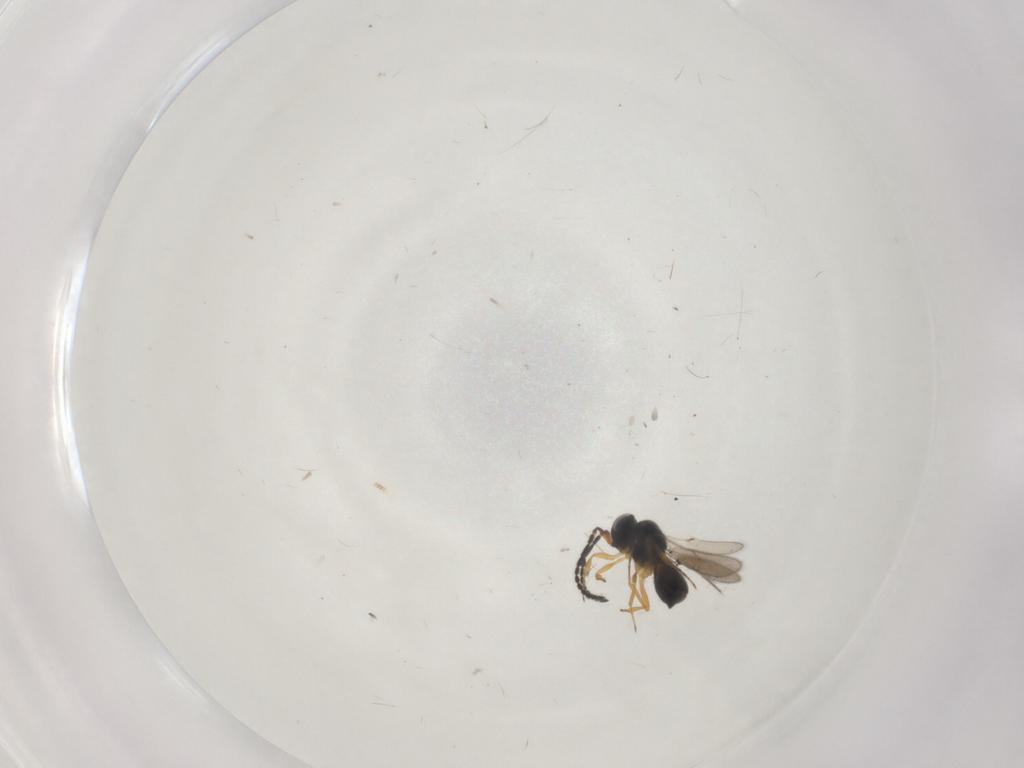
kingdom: Animalia
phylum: Arthropoda
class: Insecta
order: Hymenoptera
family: Scelionidae
